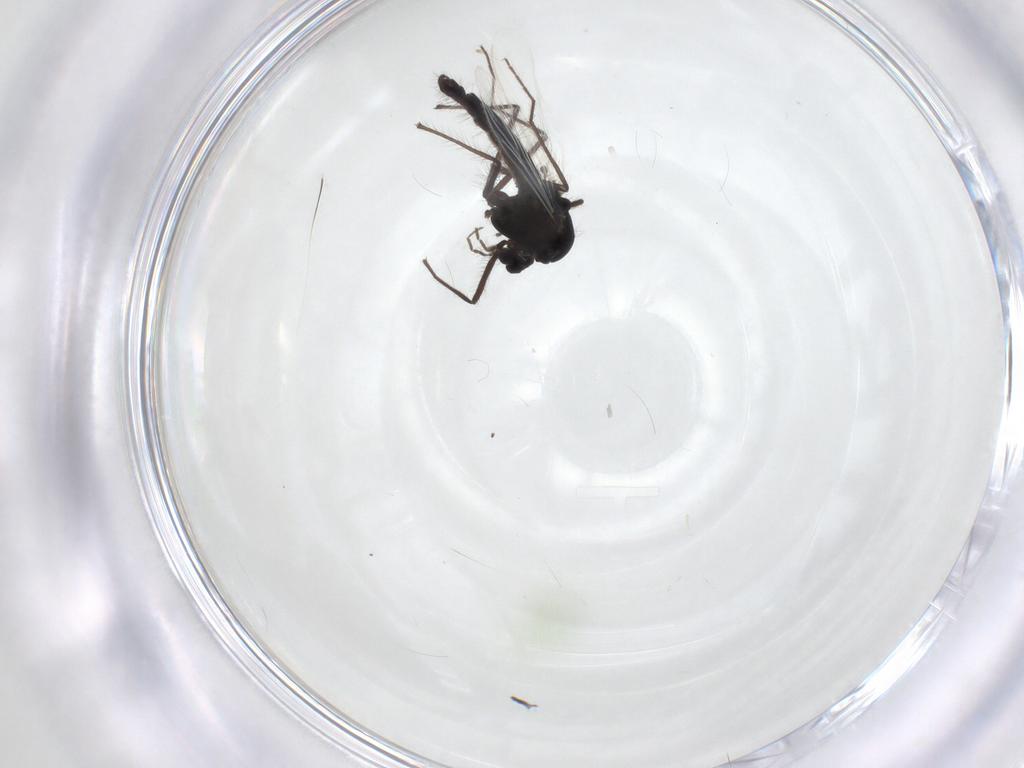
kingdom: Animalia
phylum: Arthropoda
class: Insecta
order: Diptera
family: Chironomidae
